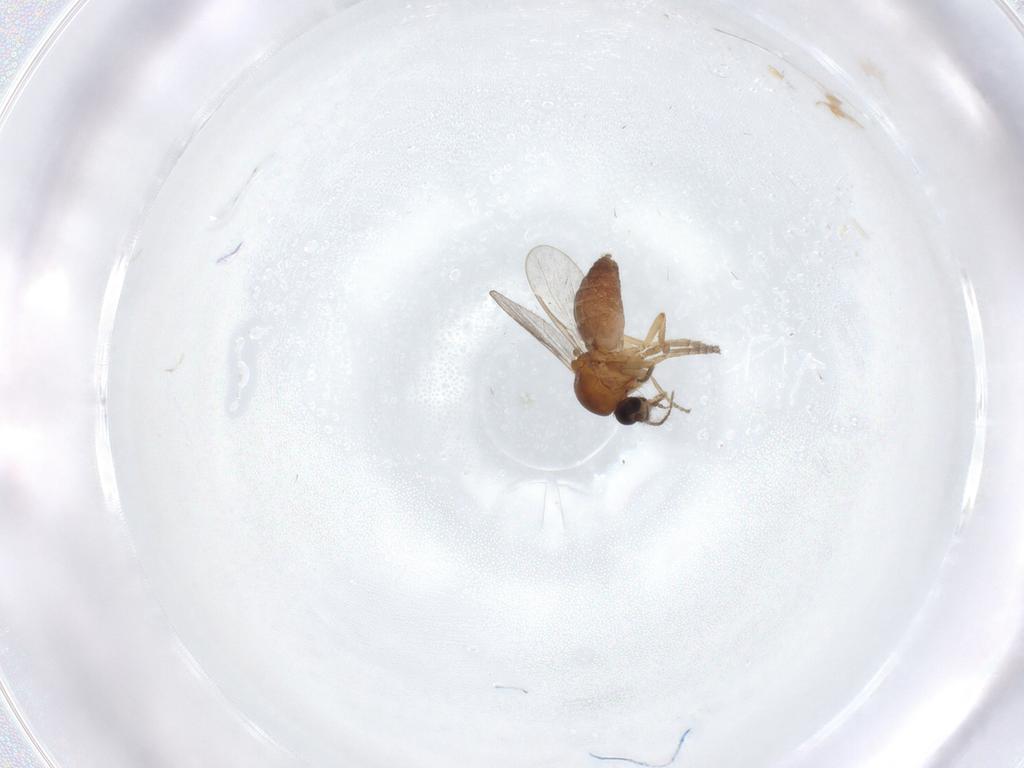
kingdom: Animalia
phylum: Arthropoda
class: Insecta
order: Diptera
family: Ceratopogonidae
